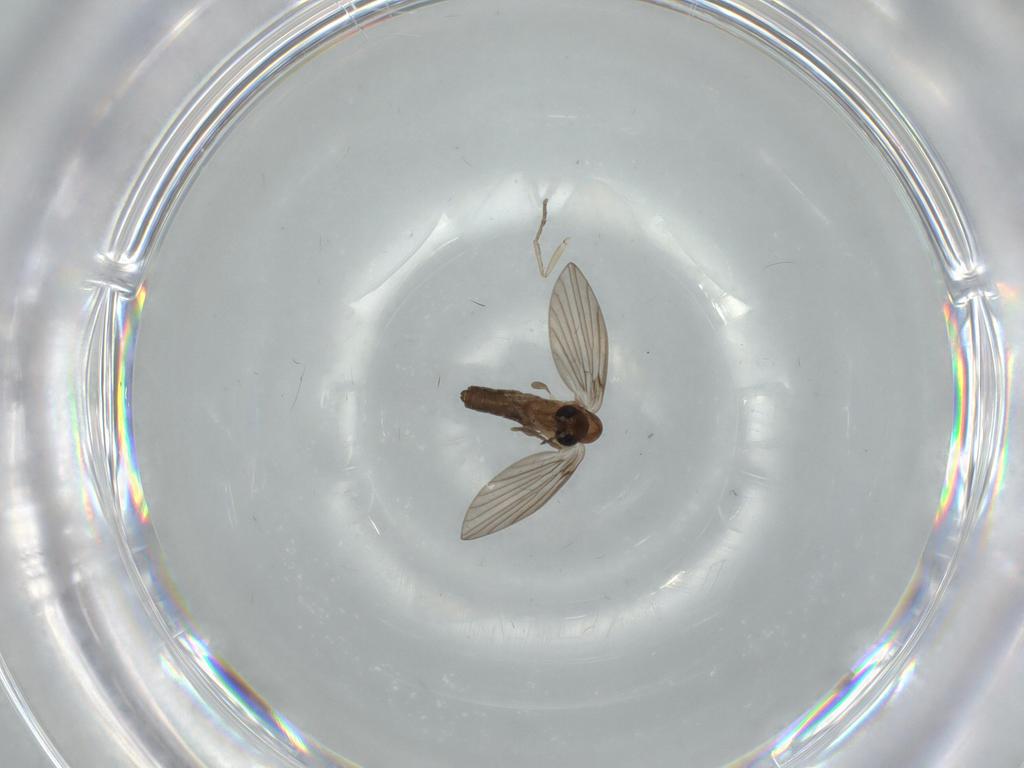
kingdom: Animalia
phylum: Arthropoda
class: Insecta
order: Diptera
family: Psychodidae
